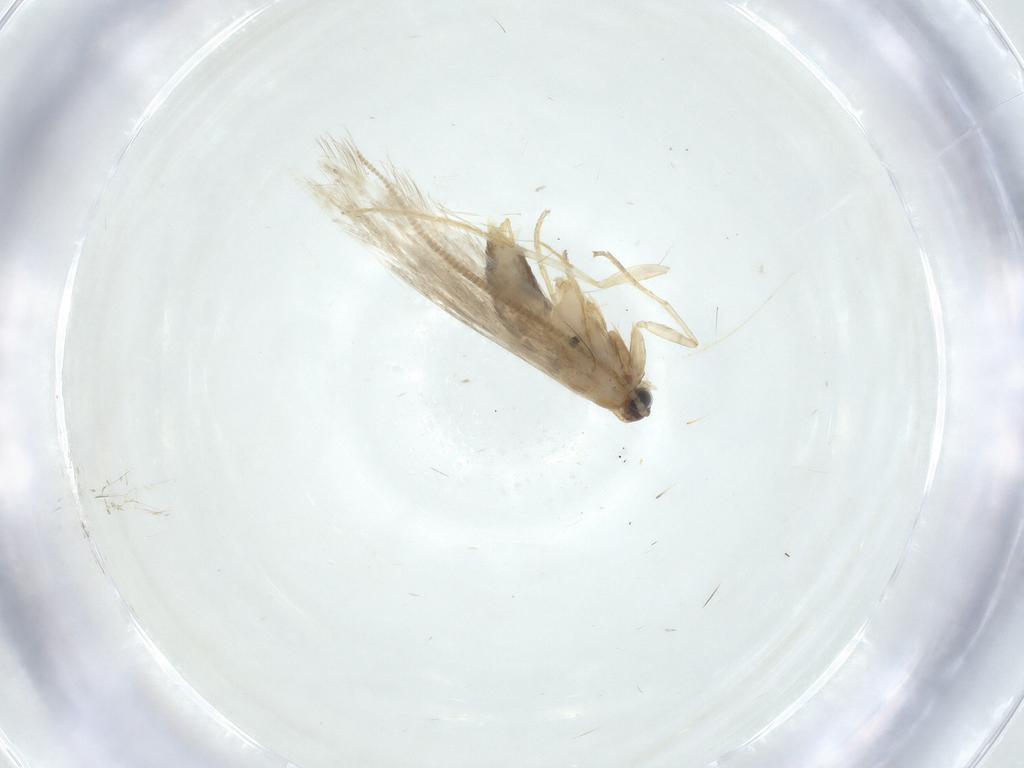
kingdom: Animalia
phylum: Arthropoda
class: Insecta
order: Lepidoptera
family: Tineidae
